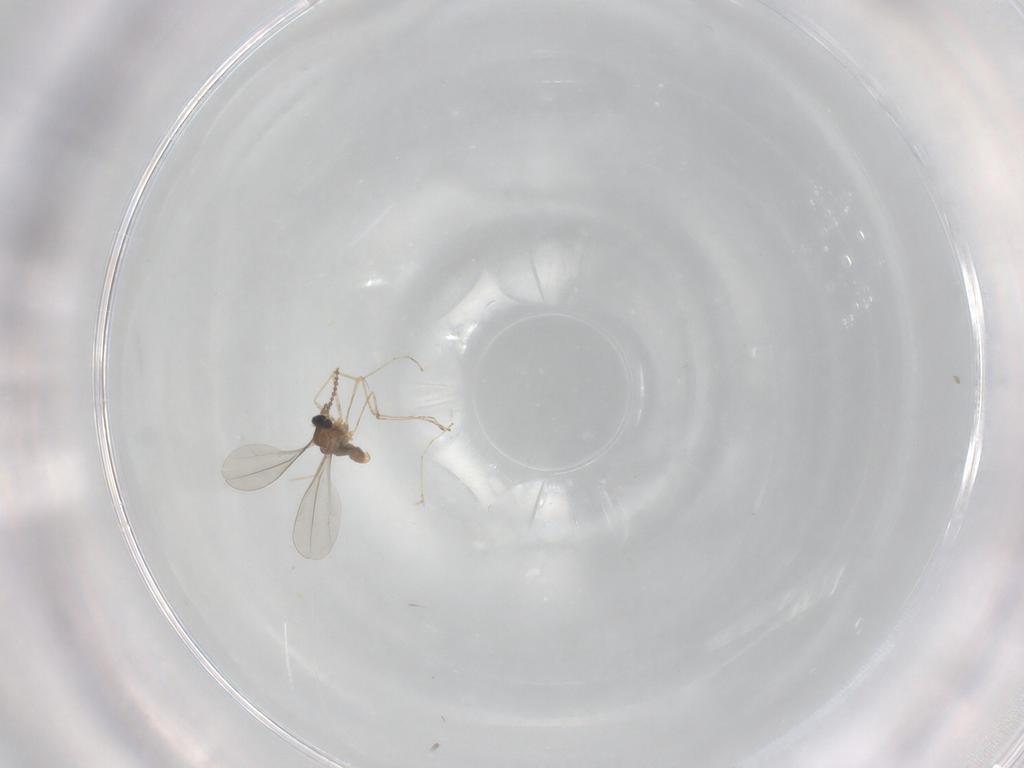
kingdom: Animalia
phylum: Arthropoda
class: Insecta
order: Diptera
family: Cecidomyiidae
